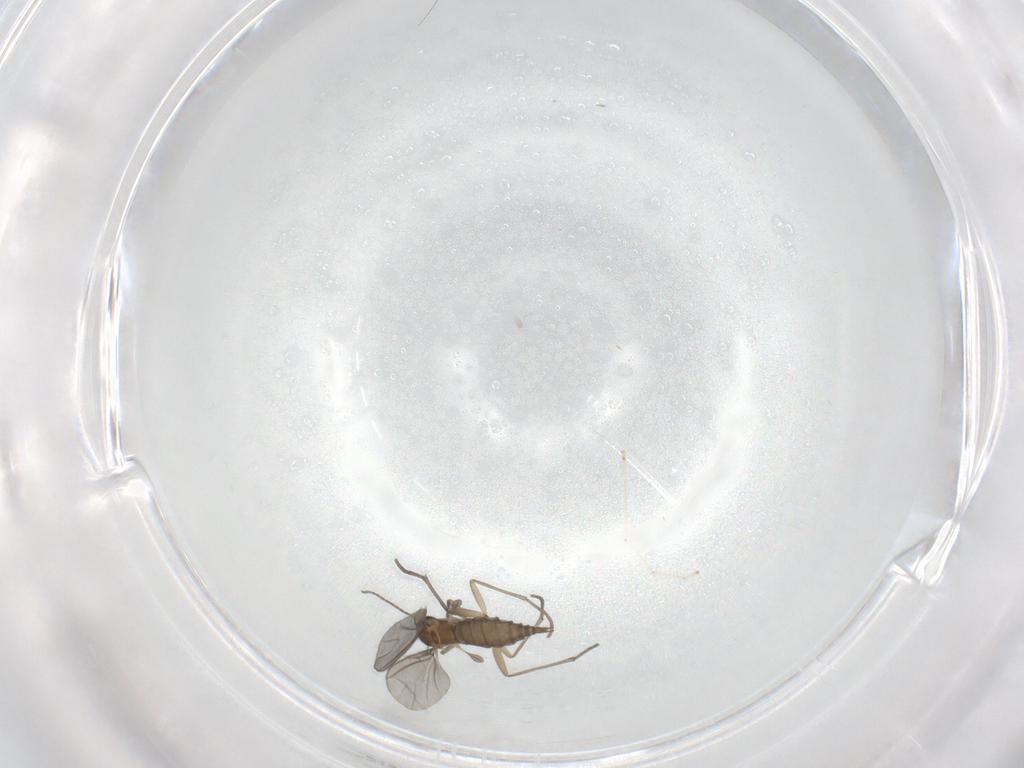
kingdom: Animalia
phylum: Arthropoda
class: Insecta
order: Diptera
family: Sciaridae
